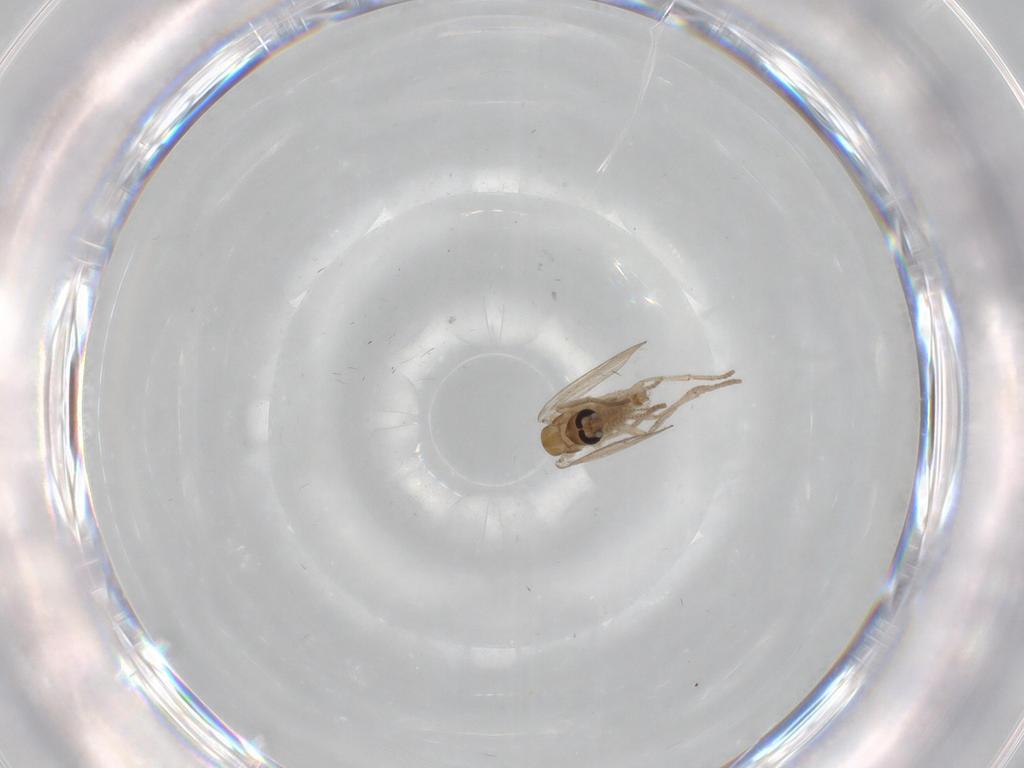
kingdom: Animalia
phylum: Arthropoda
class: Insecta
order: Diptera
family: Psychodidae
